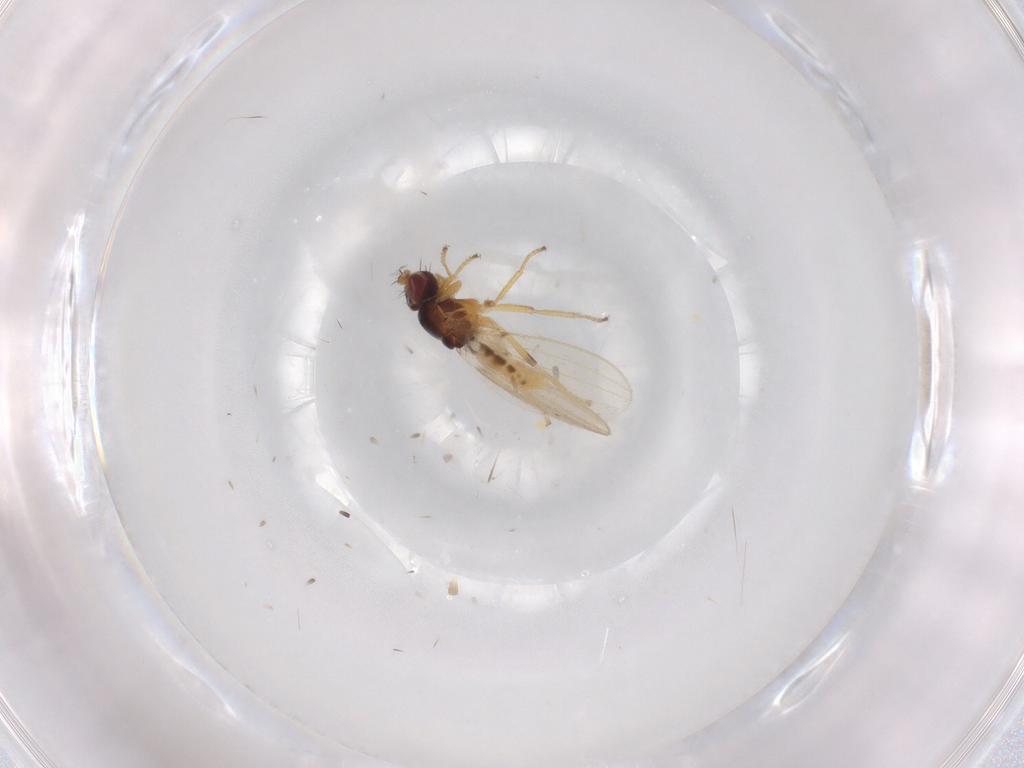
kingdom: Animalia
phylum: Arthropoda
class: Insecta
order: Diptera
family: Periscelididae
